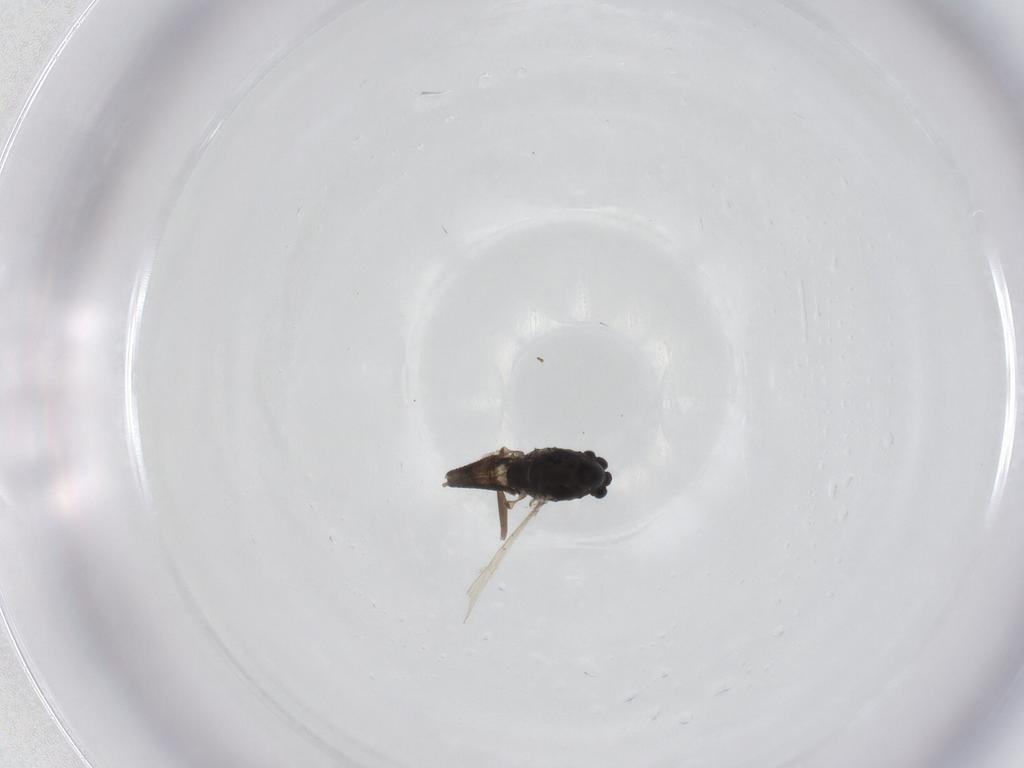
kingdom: Animalia
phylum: Arthropoda
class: Insecta
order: Diptera
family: Chironomidae
